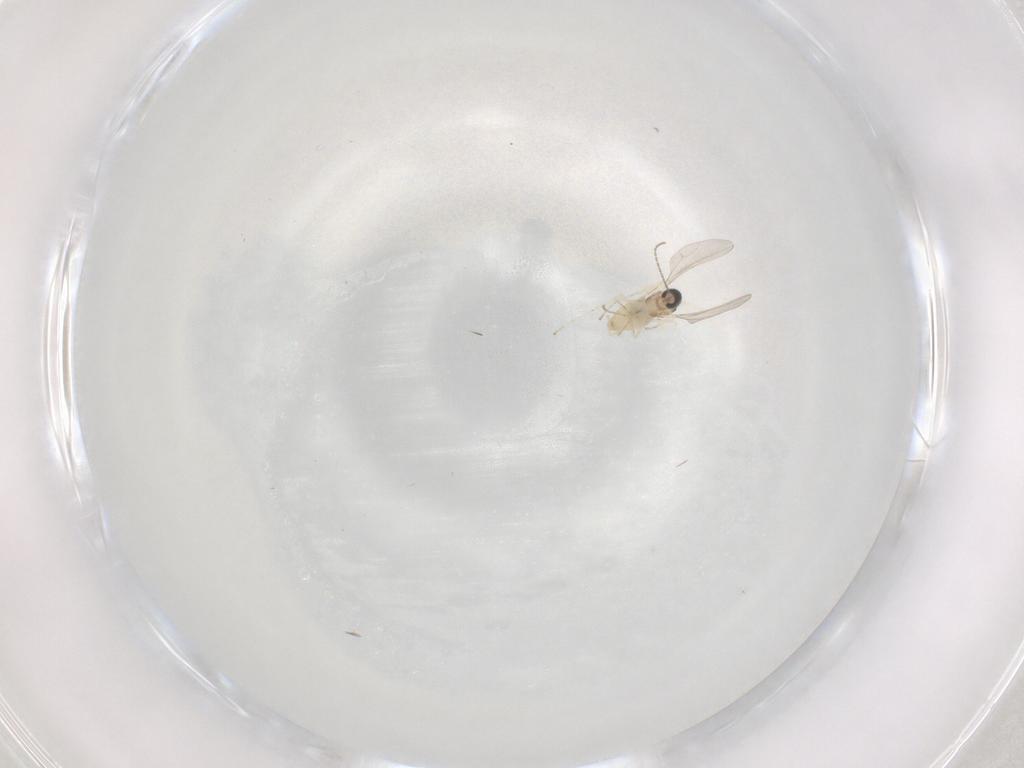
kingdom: Animalia
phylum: Arthropoda
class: Insecta
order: Diptera
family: Cecidomyiidae
